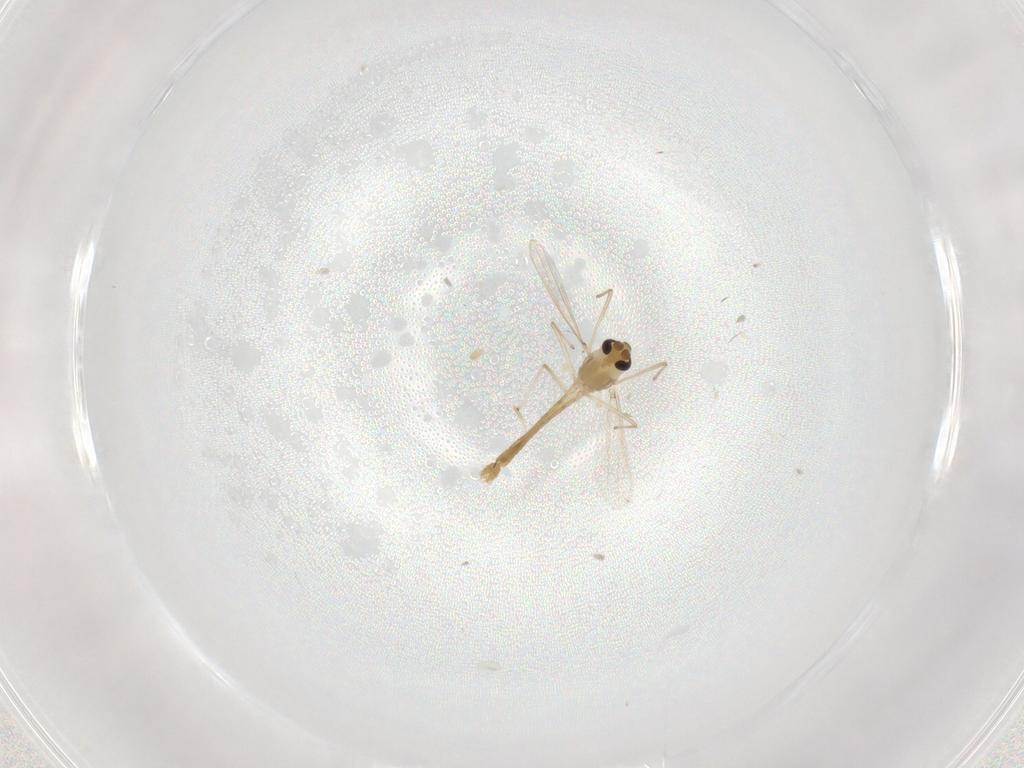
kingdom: Animalia
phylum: Arthropoda
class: Insecta
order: Diptera
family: Chironomidae
